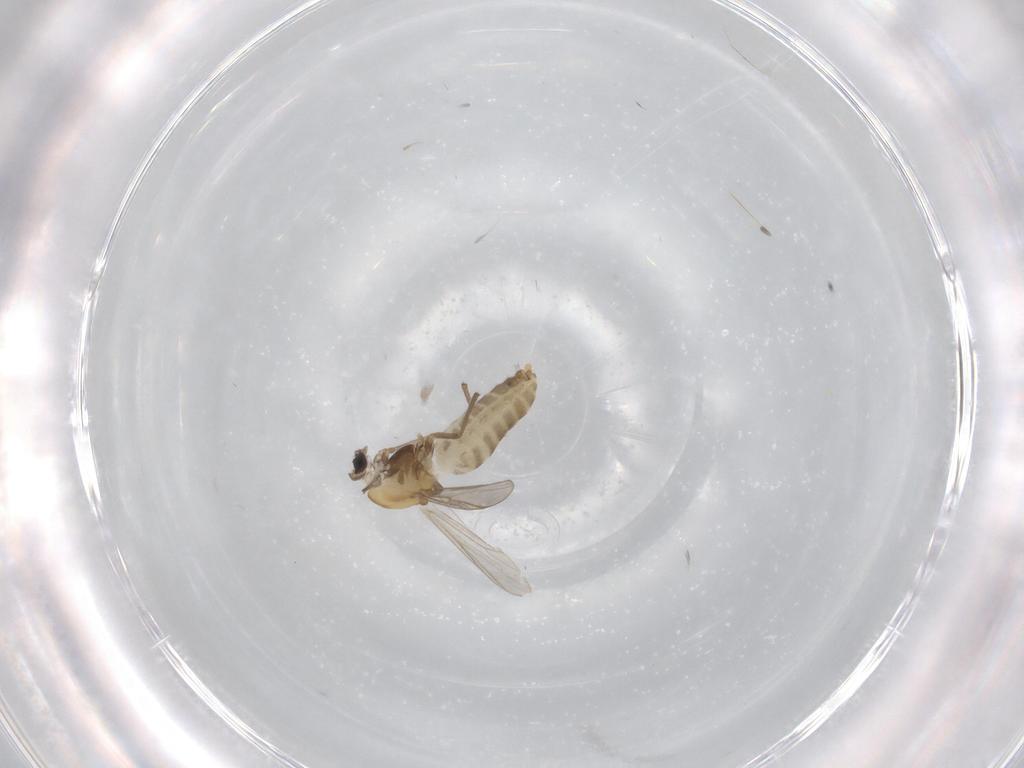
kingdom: Animalia
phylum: Arthropoda
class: Insecta
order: Diptera
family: Chironomidae
